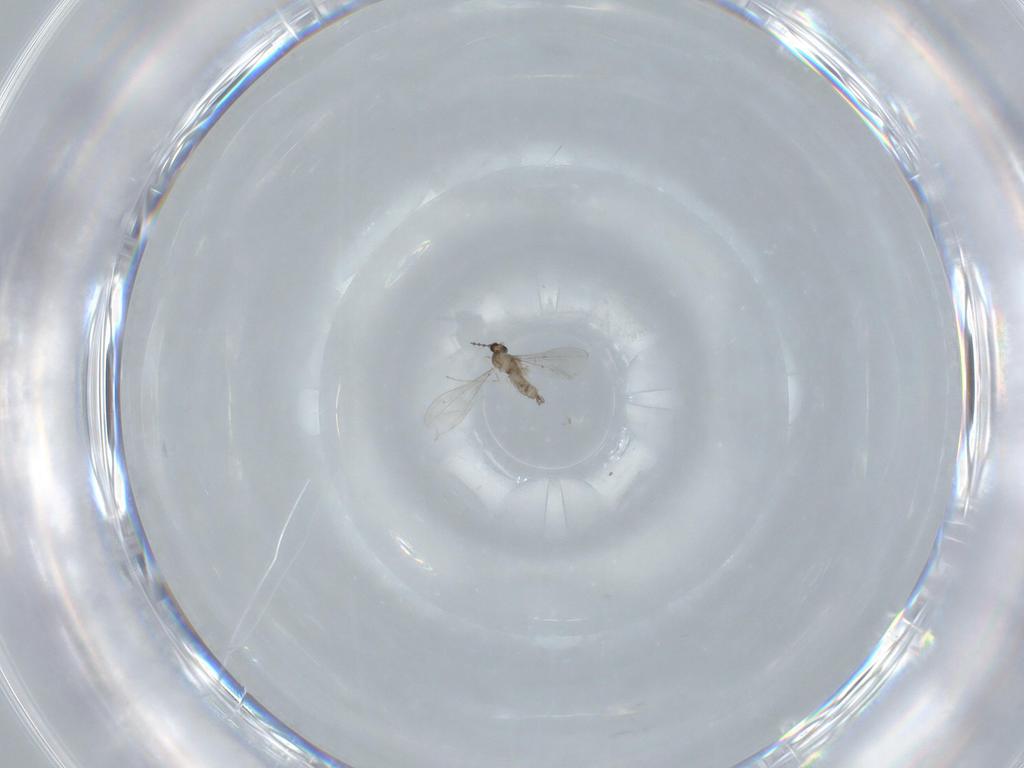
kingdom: Animalia
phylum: Arthropoda
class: Insecta
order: Diptera
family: Cecidomyiidae
